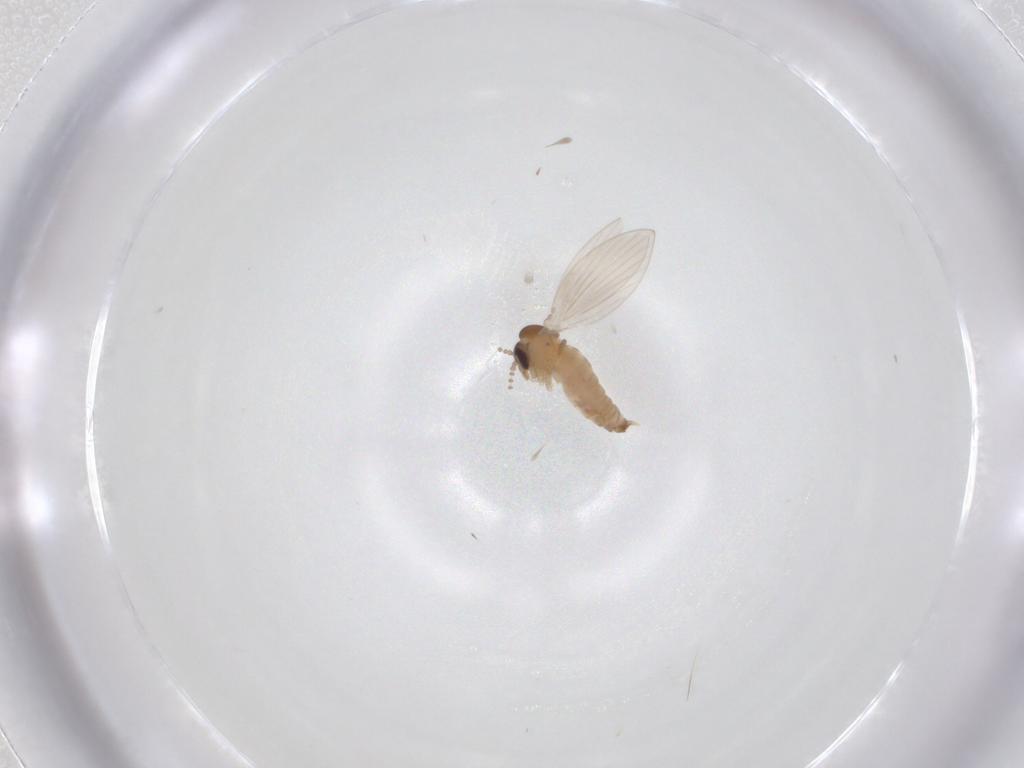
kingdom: Animalia
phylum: Arthropoda
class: Insecta
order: Diptera
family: Psychodidae
